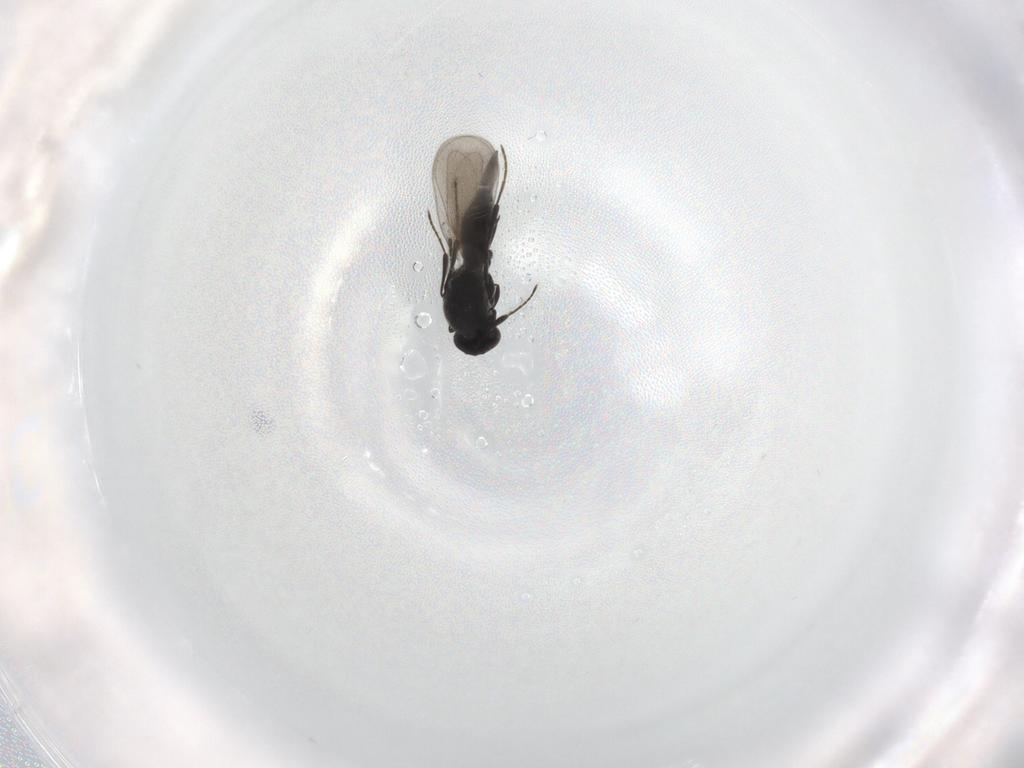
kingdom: Animalia
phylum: Arthropoda
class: Insecta
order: Diptera
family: Mythicomyiidae
